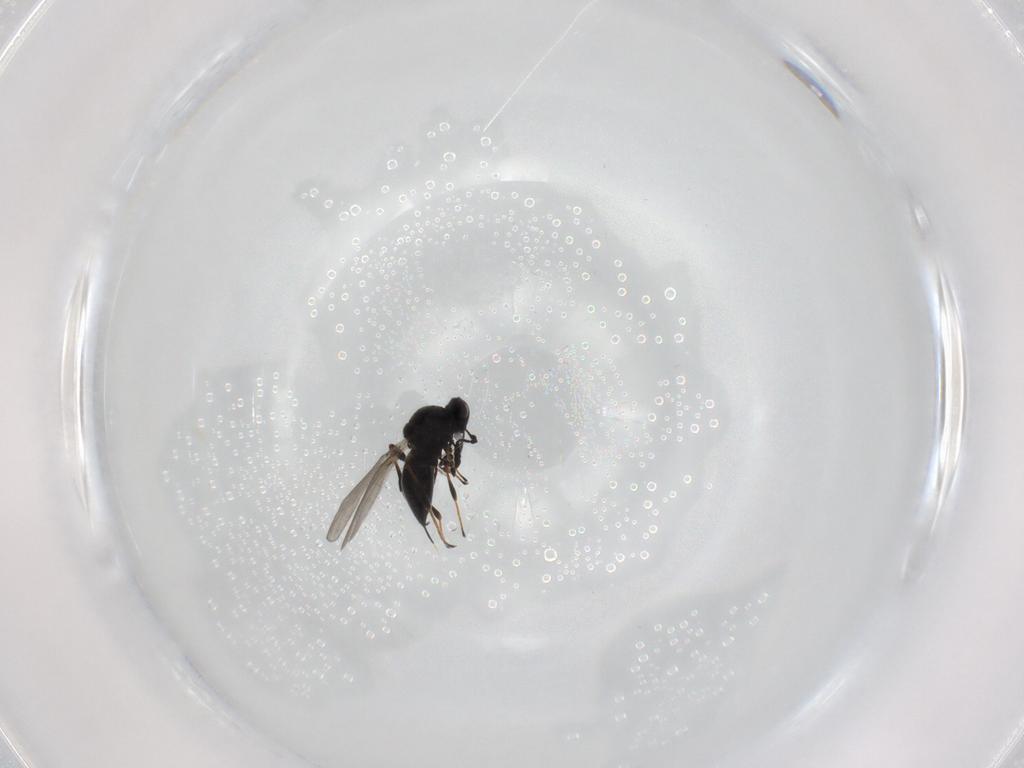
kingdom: Animalia
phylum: Arthropoda
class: Insecta
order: Hymenoptera
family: Platygastridae
